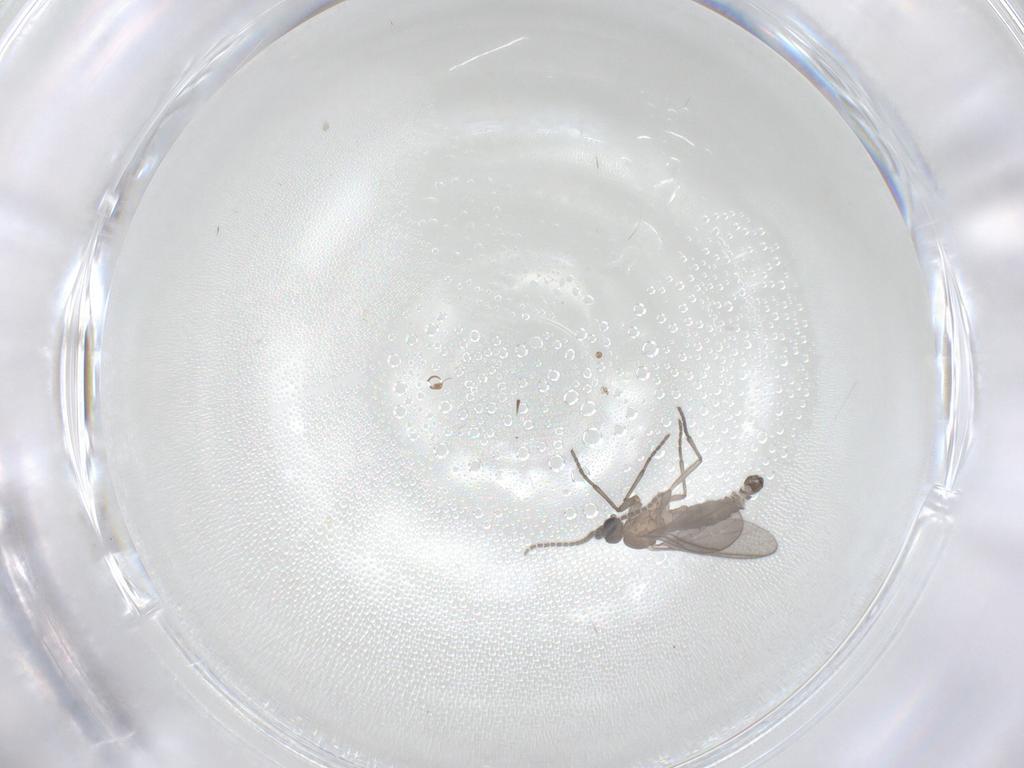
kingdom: Animalia
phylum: Arthropoda
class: Insecta
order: Diptera
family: Sciaridae
